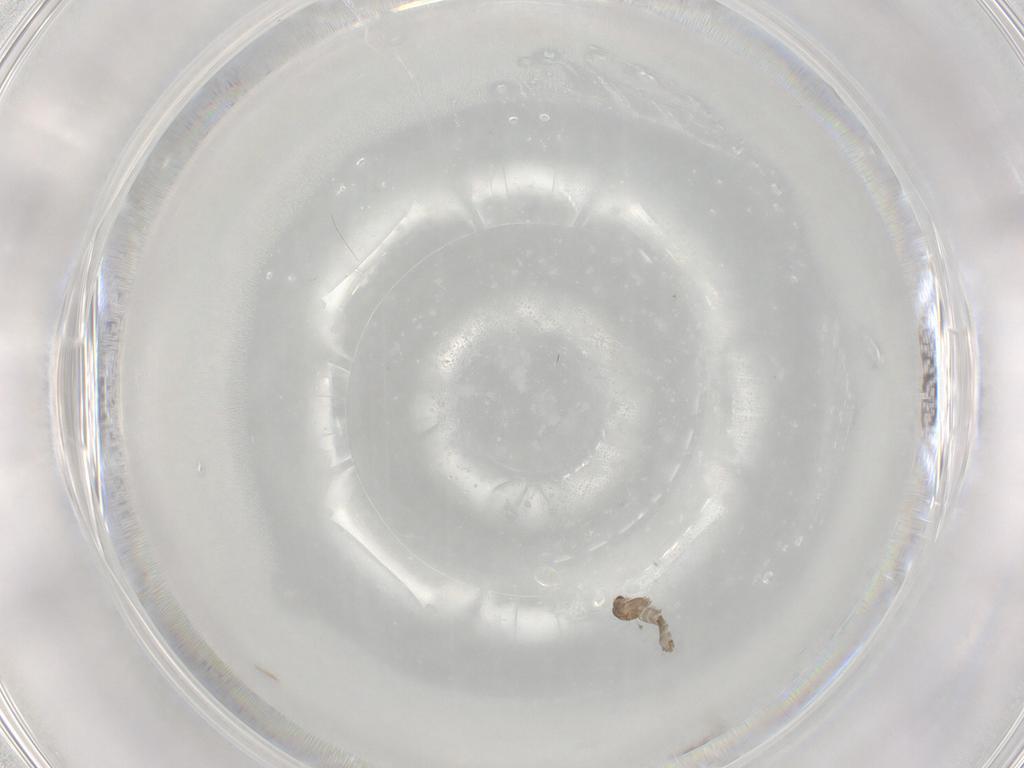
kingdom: Animalia
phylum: Arthropoda
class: Insecta
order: Diptera
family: Chironomidae
